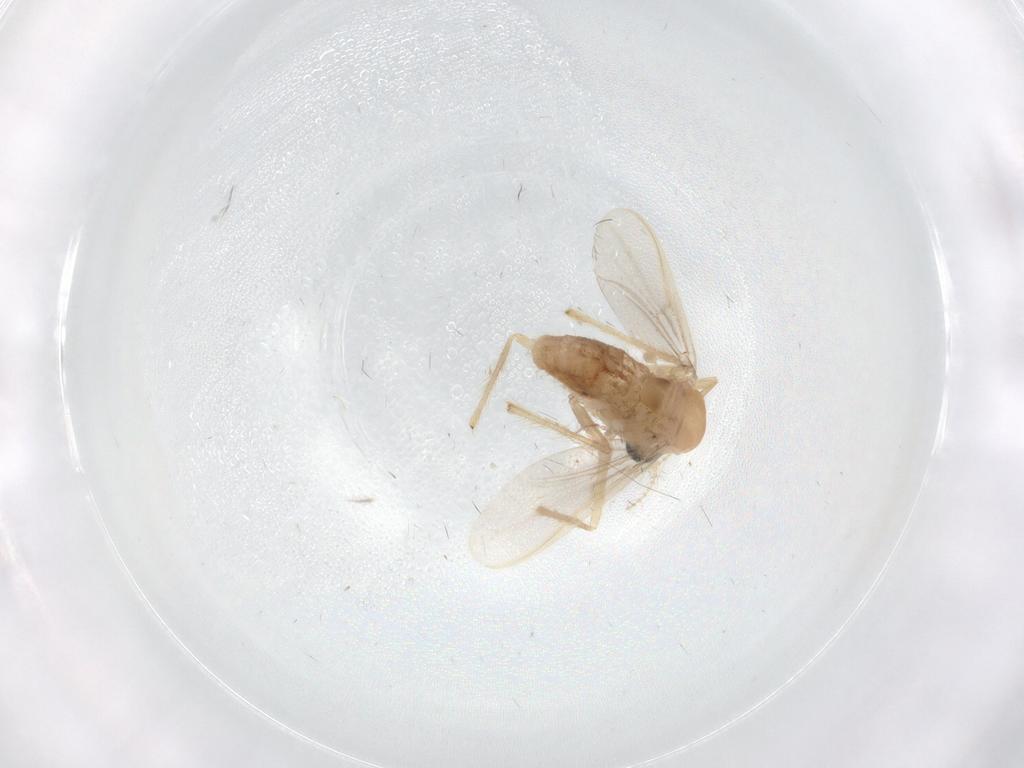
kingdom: Animalia
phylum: Arthropoda
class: Insecta
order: Diptera
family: Chironomidae
